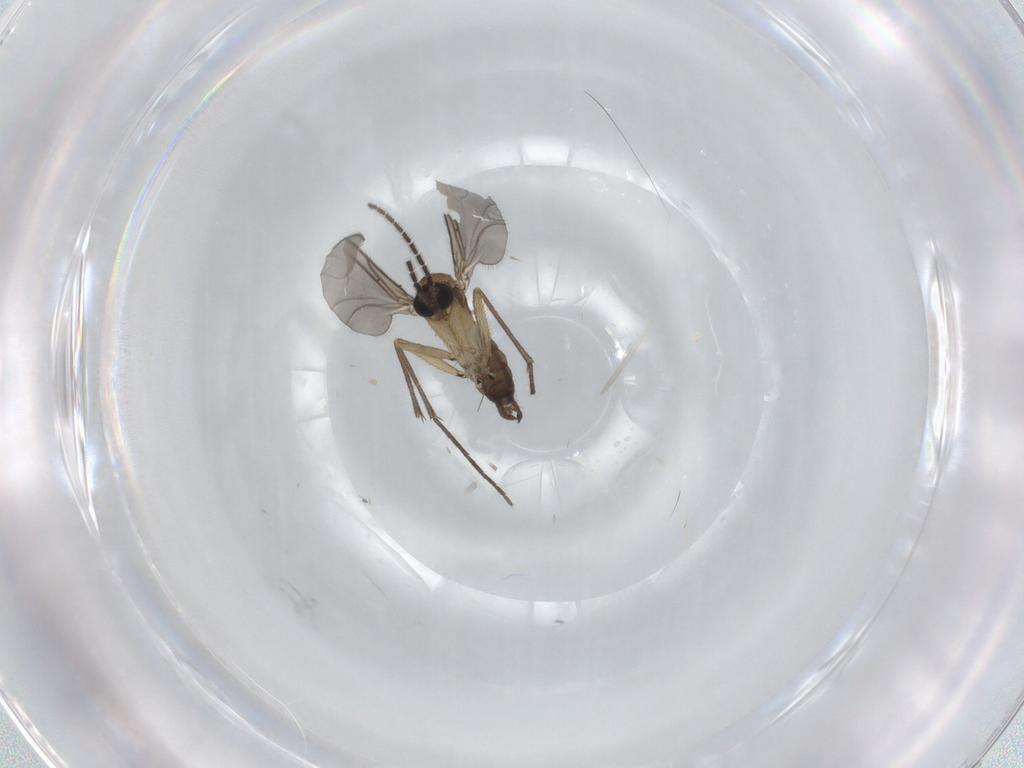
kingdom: Animalia
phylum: Arthropoda
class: Insecta
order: Diptera
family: Sciaridae
